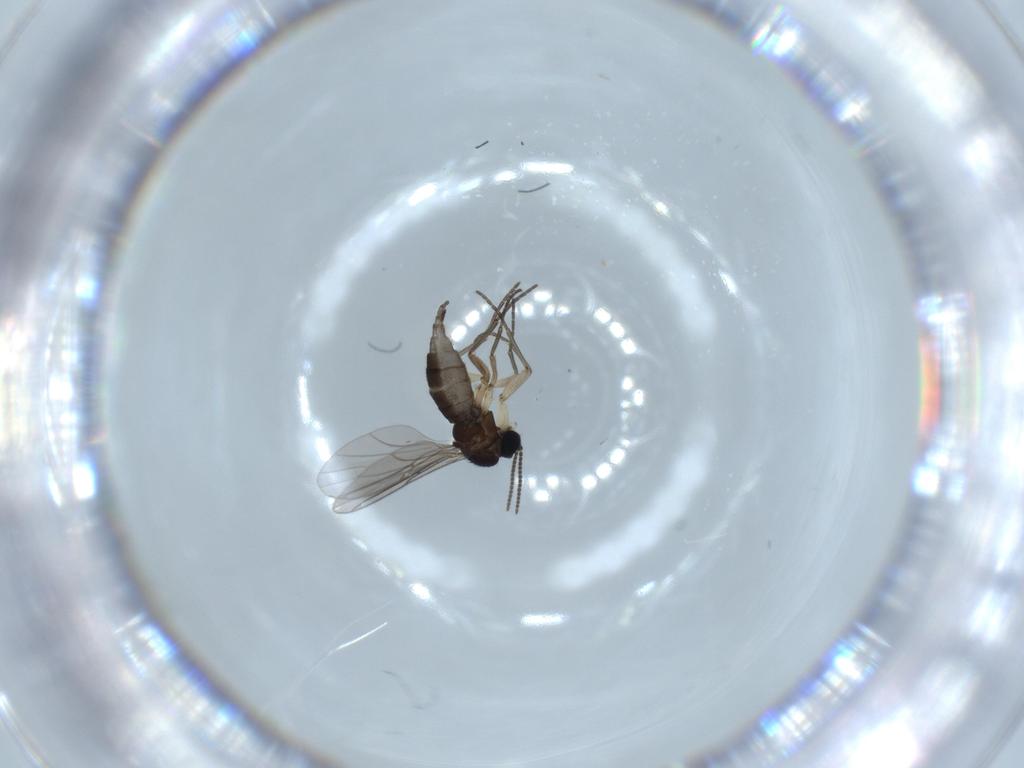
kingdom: Animalia
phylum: Arthropoda
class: Insecta
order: Diptera
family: Sciaridae
